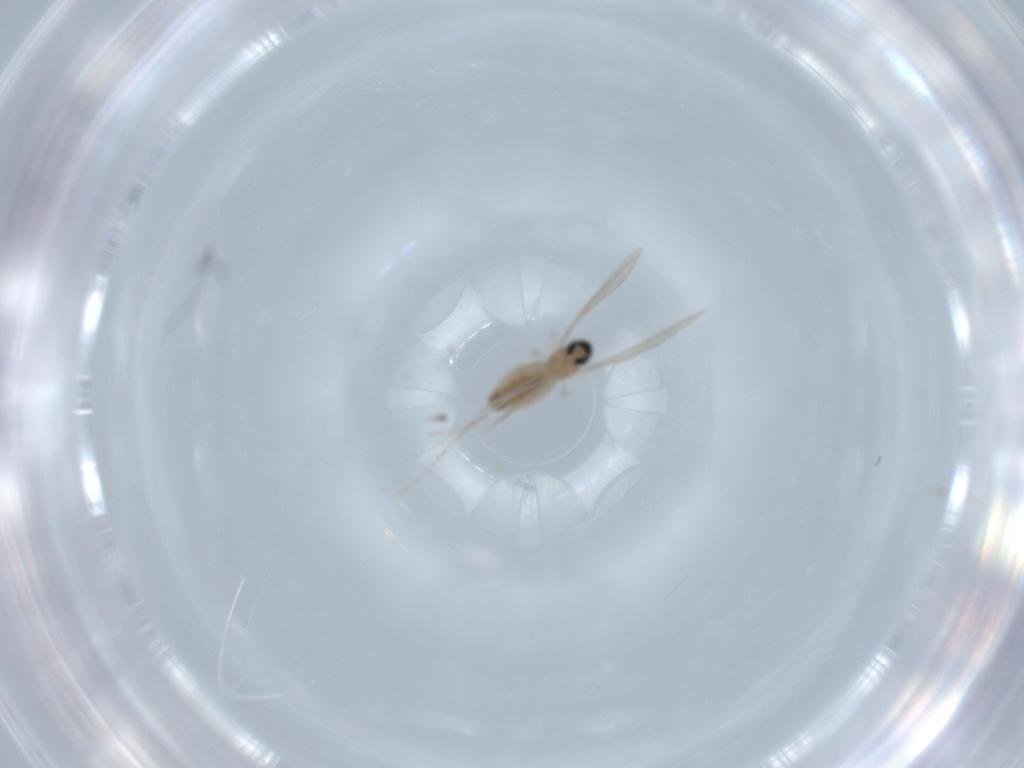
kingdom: Animalia
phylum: Arthropoda
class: Insecta
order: Diptera
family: Cecidomyiidae
